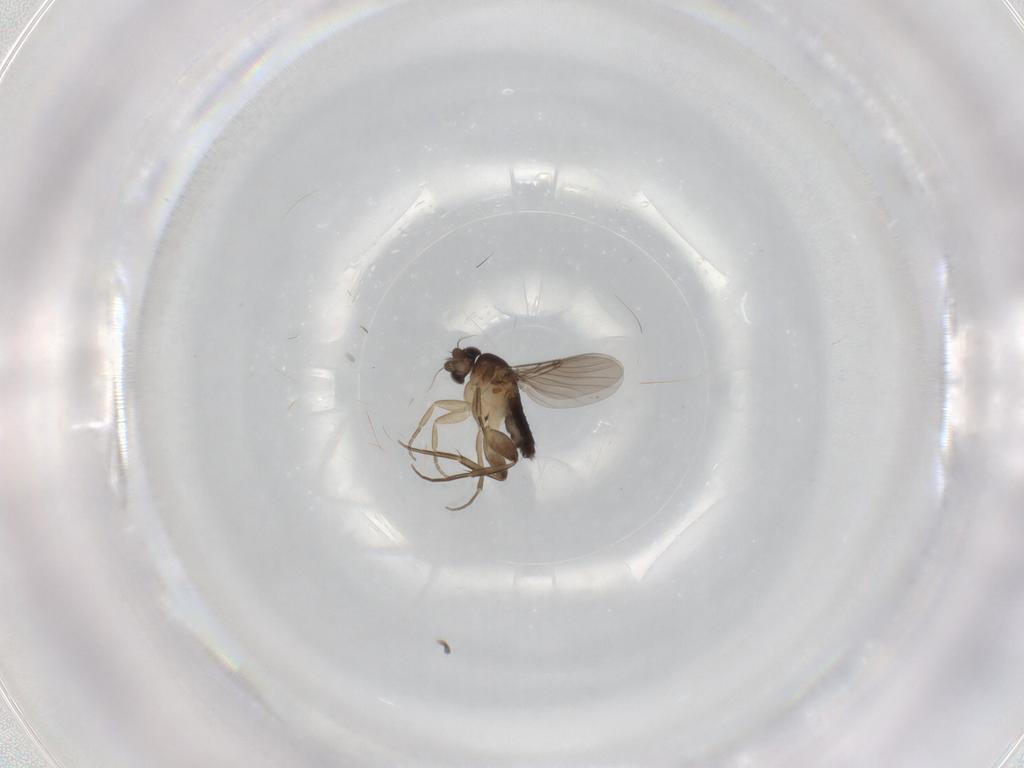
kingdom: Animalia
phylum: Arthropoda
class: Insecta
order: Diptera
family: Phoridae
